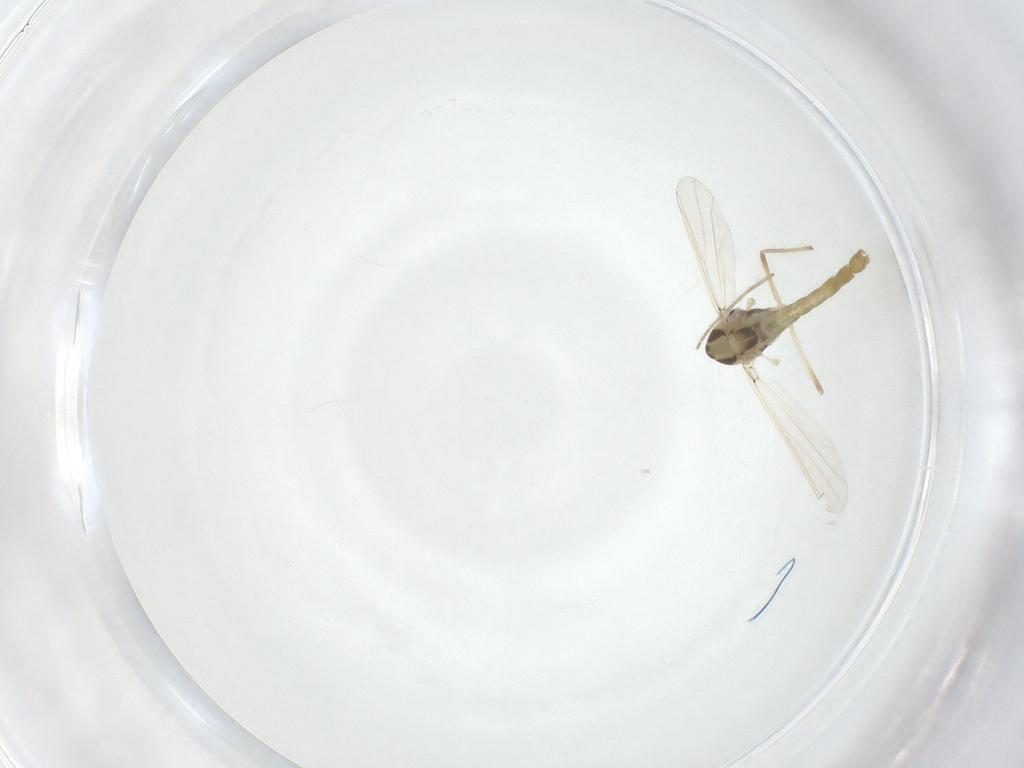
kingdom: Animalia
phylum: Arthropoda
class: Insecta
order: Diptera
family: Chironomidae
